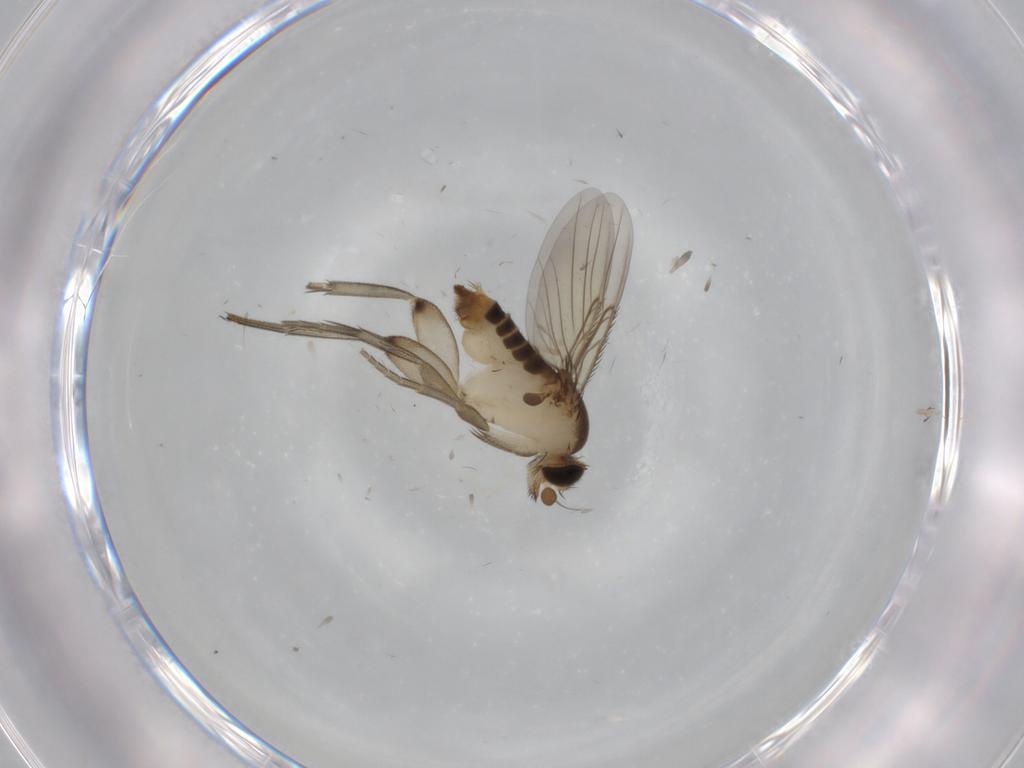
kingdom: Animalia
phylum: Arthropoda
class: Insecta
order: Diptera
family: Phoridae
